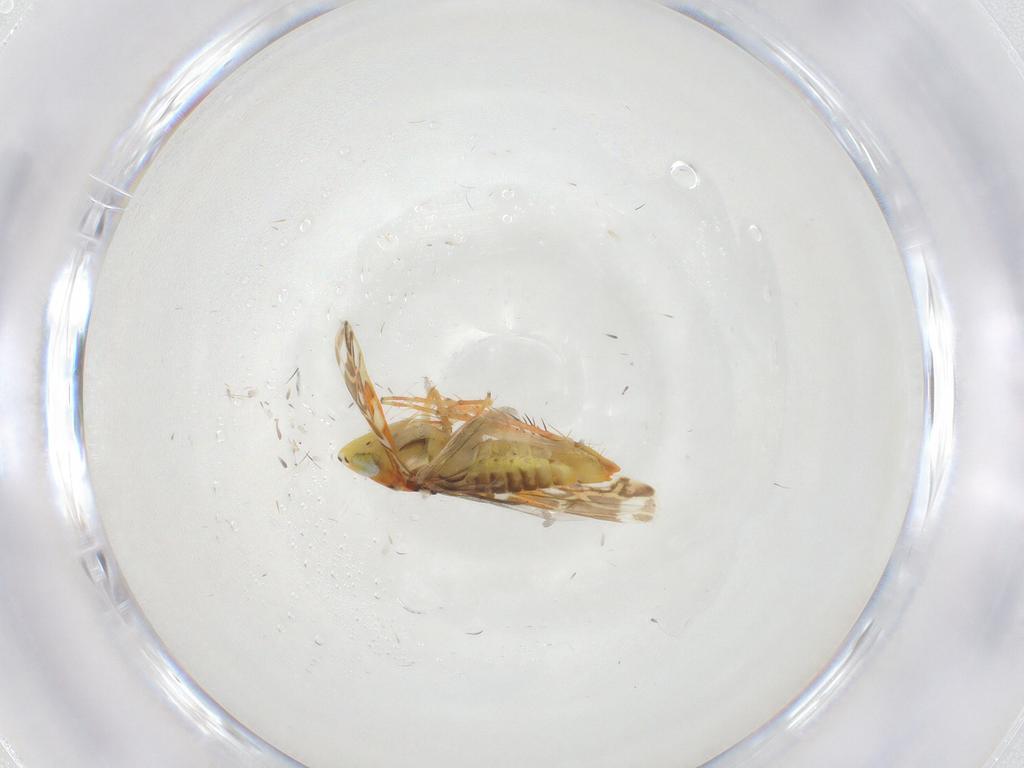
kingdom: Animalia
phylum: Arthropoda
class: Insecta
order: Hemiptera
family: Cicadellidae
